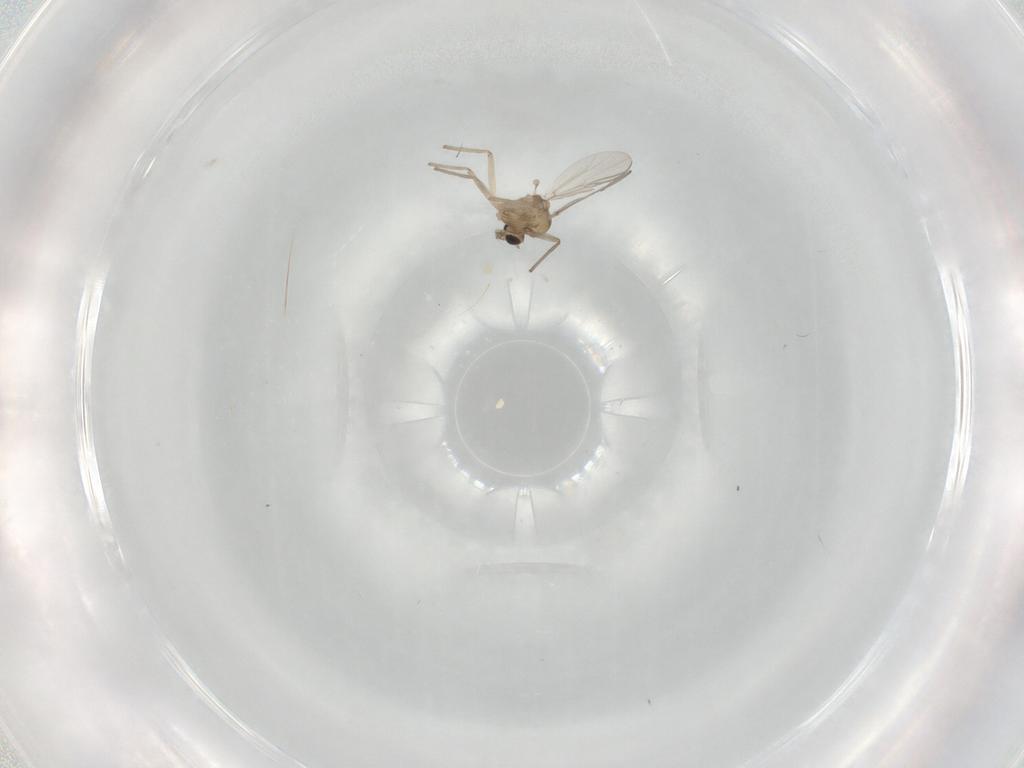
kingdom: Animalia
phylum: Arthropoda
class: Insecta
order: Diptera
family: Chironomidae
